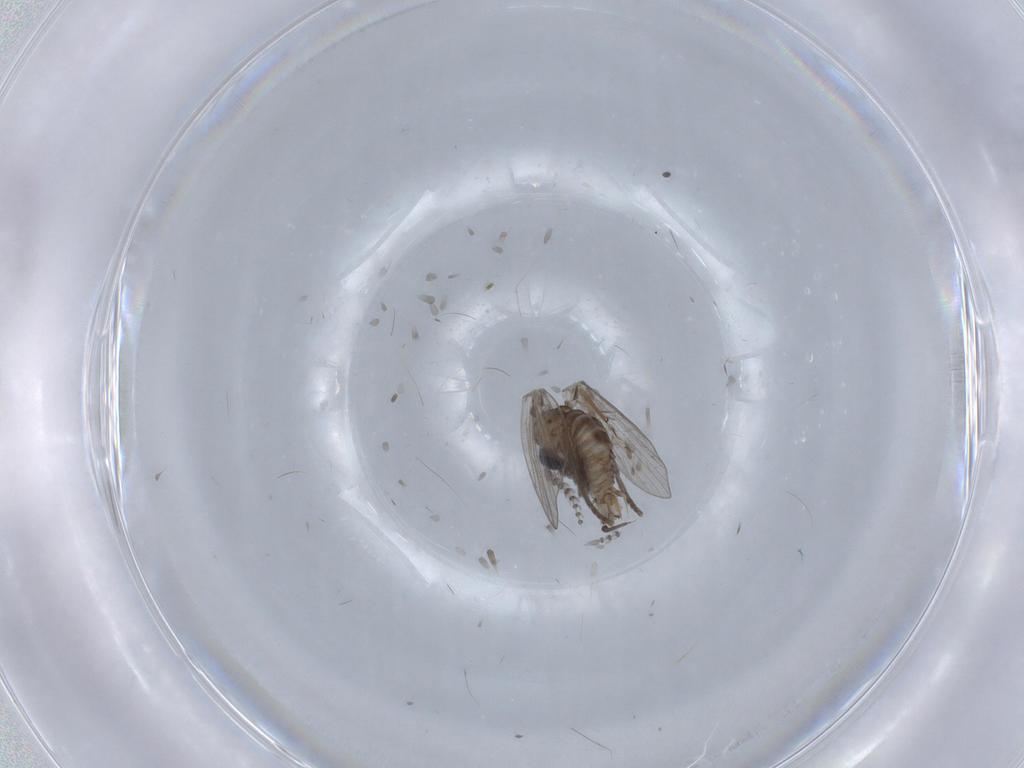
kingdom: Animalia
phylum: Arthropoda
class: Insecta
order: Diptera
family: Psychodidae
